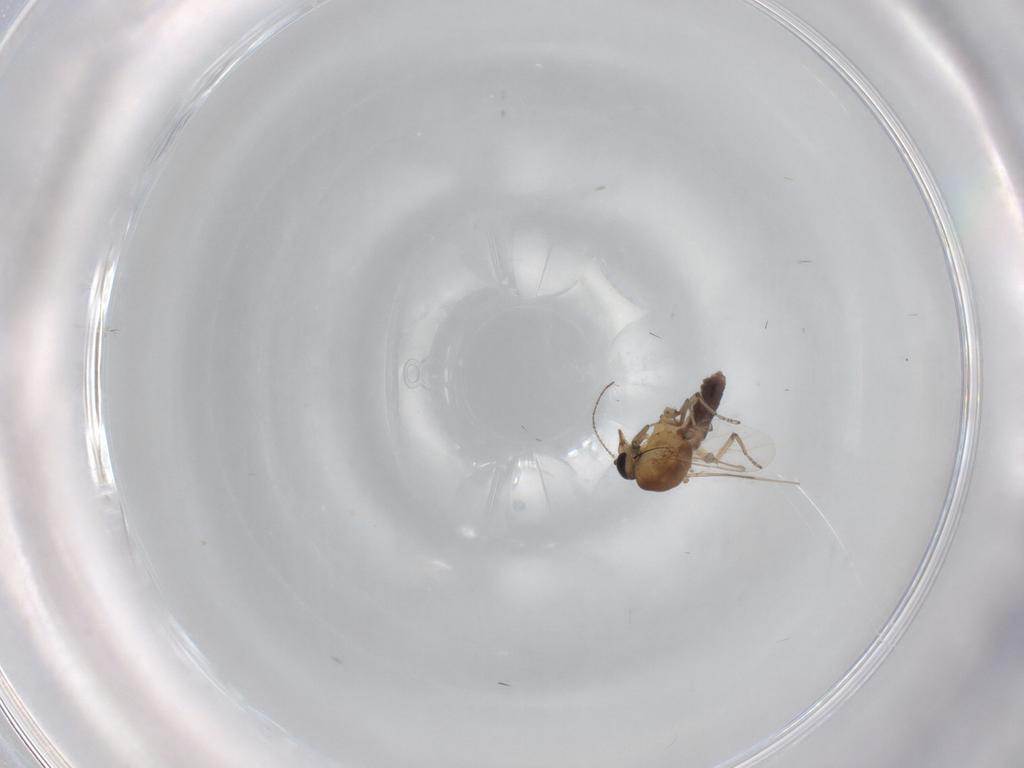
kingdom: Animalia
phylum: Arthropoda
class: Insecta
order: Diptera
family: Ceratopogonidae
